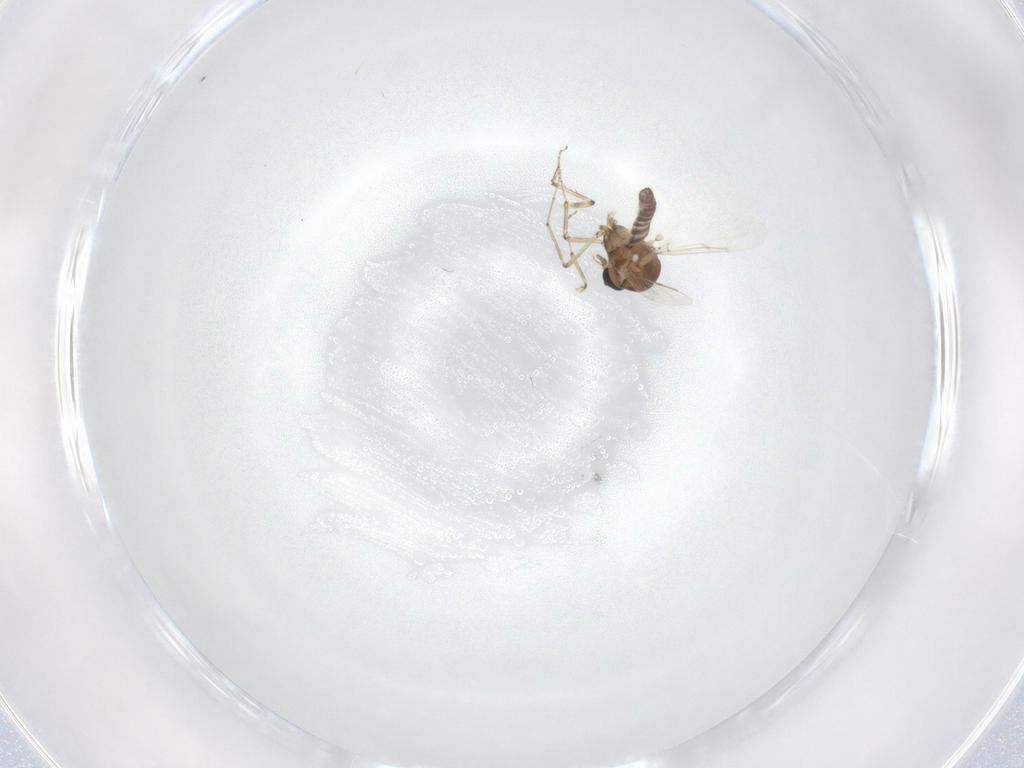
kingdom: Animalia
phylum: Arthropoda
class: Insecta
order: Diptera
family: Ceratopogonidae
